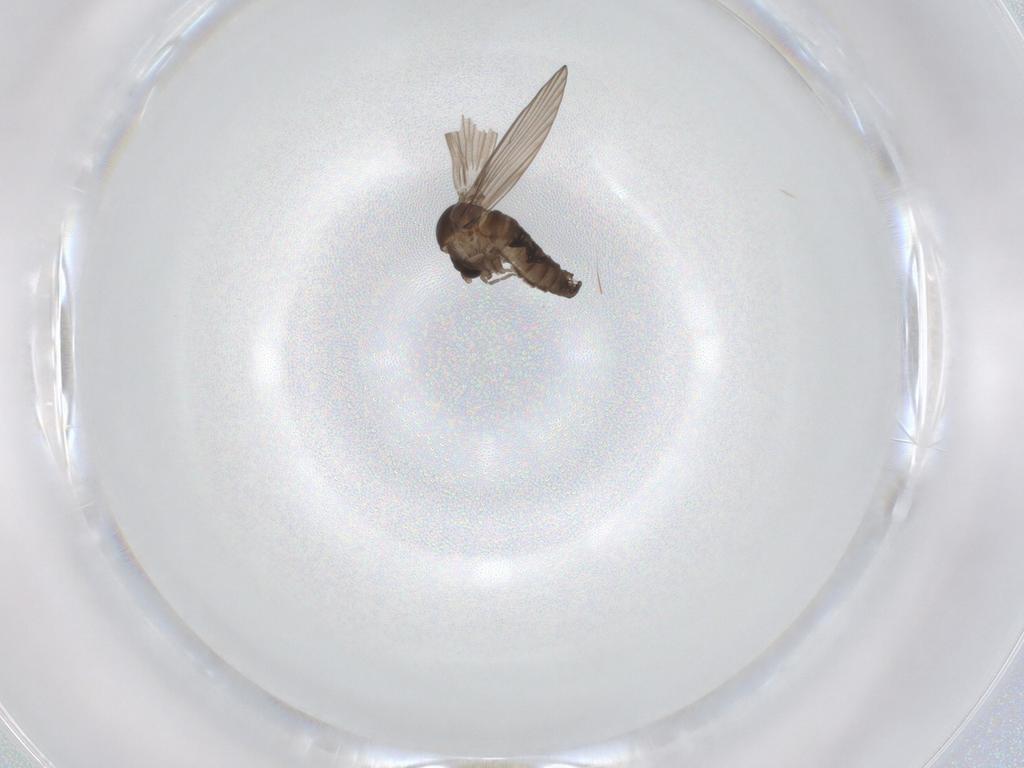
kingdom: Animalia
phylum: Arthropoda
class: Insecta
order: Diptera
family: Psychodidae
